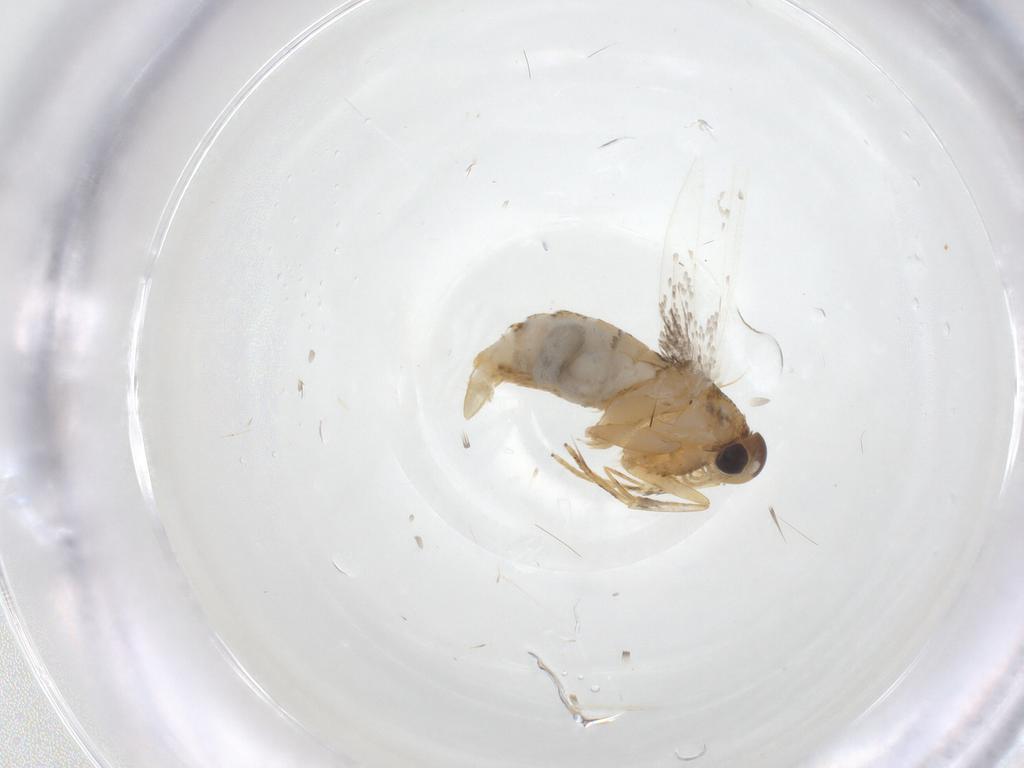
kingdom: Animalia
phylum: Arthropoda
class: Insecta
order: Lepidoptera
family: Oecophoridae
